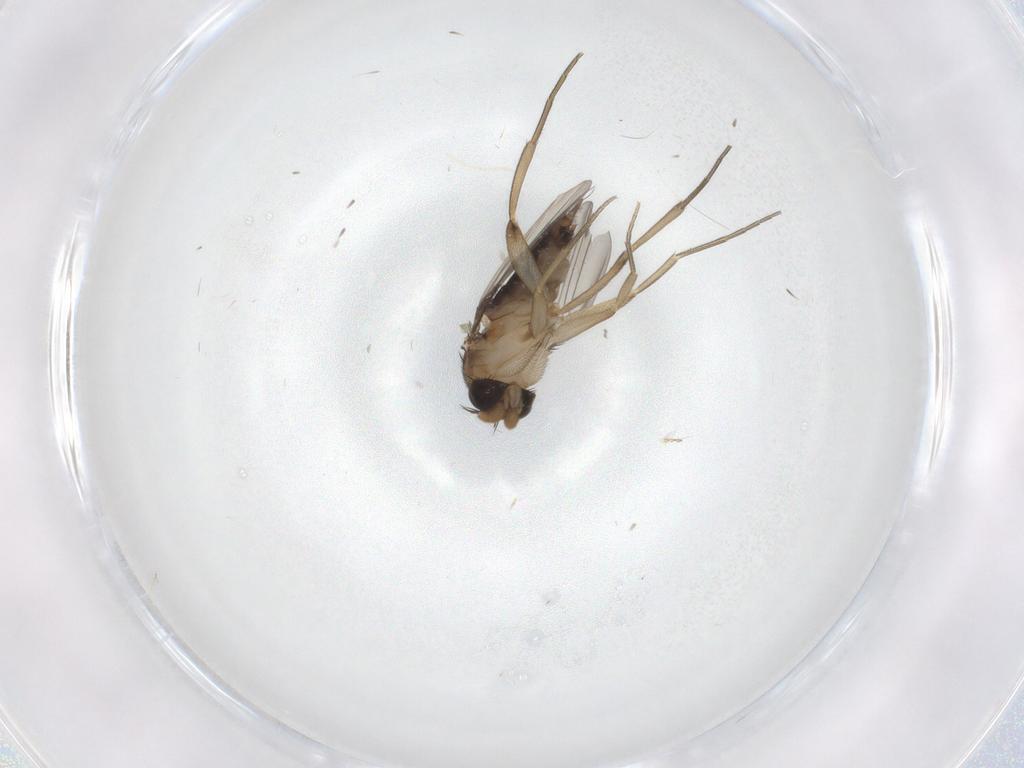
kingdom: Animalia
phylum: Arthropoda
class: Insecta
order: Diptera
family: Phoridae
